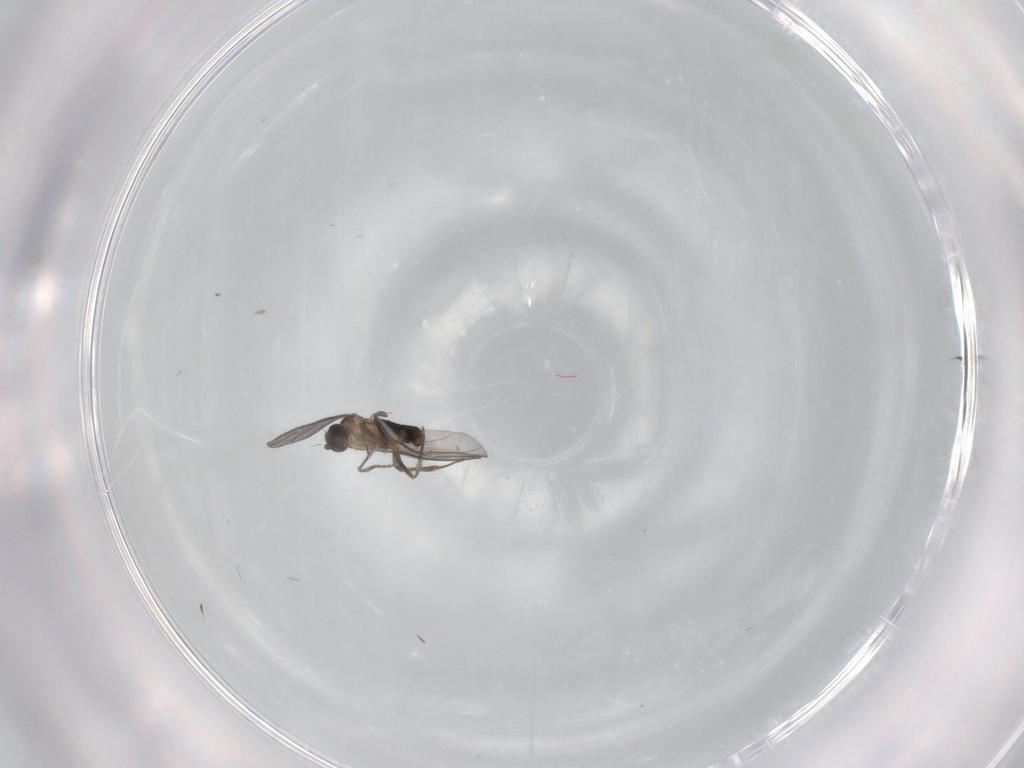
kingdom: Animalia
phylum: Arthropoda
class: Insecta
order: Diptera
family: Phoridae
